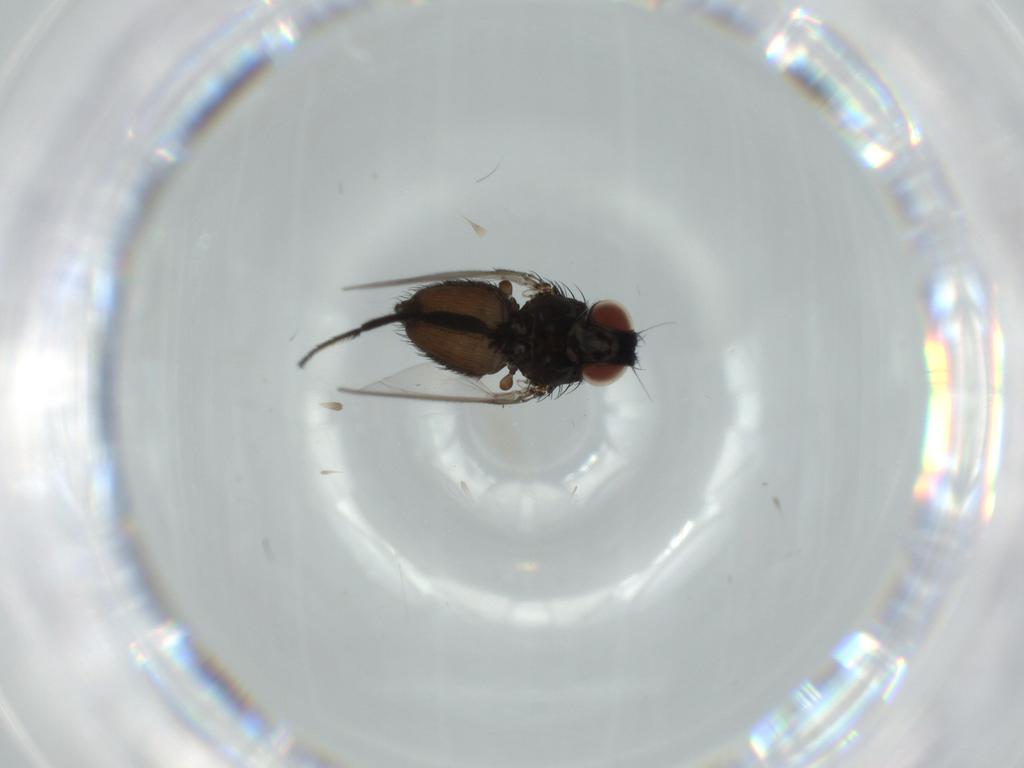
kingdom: Animalia
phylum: Arthropoda
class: Insecta
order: Diptera
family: Milichiidae
